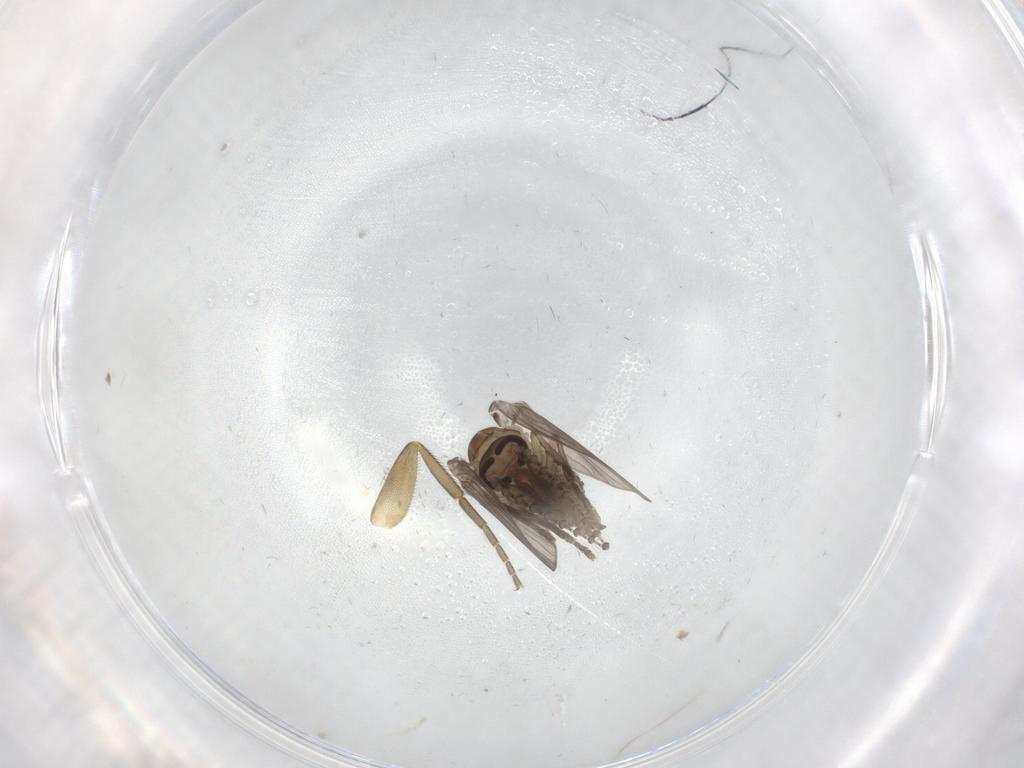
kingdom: Animalia
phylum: Arthropoda
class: Insecta
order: Diptera
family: Psychodidae
